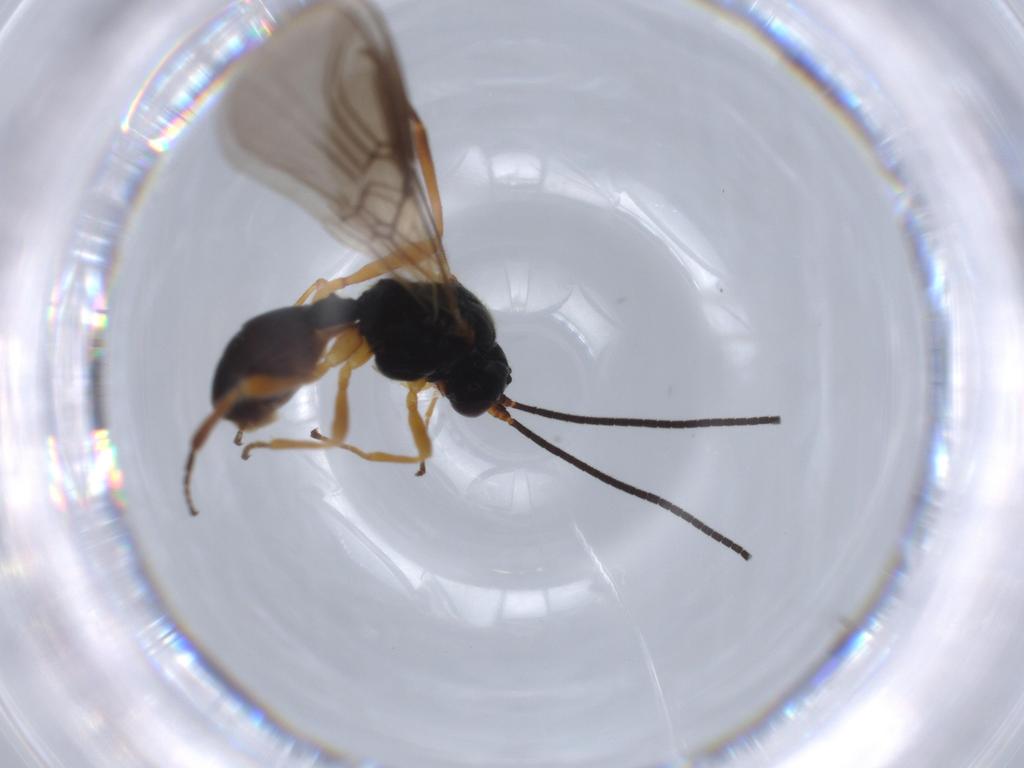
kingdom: Animalia
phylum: Arthropoda
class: Insecta
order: Hymenoptera
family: Braconidae
